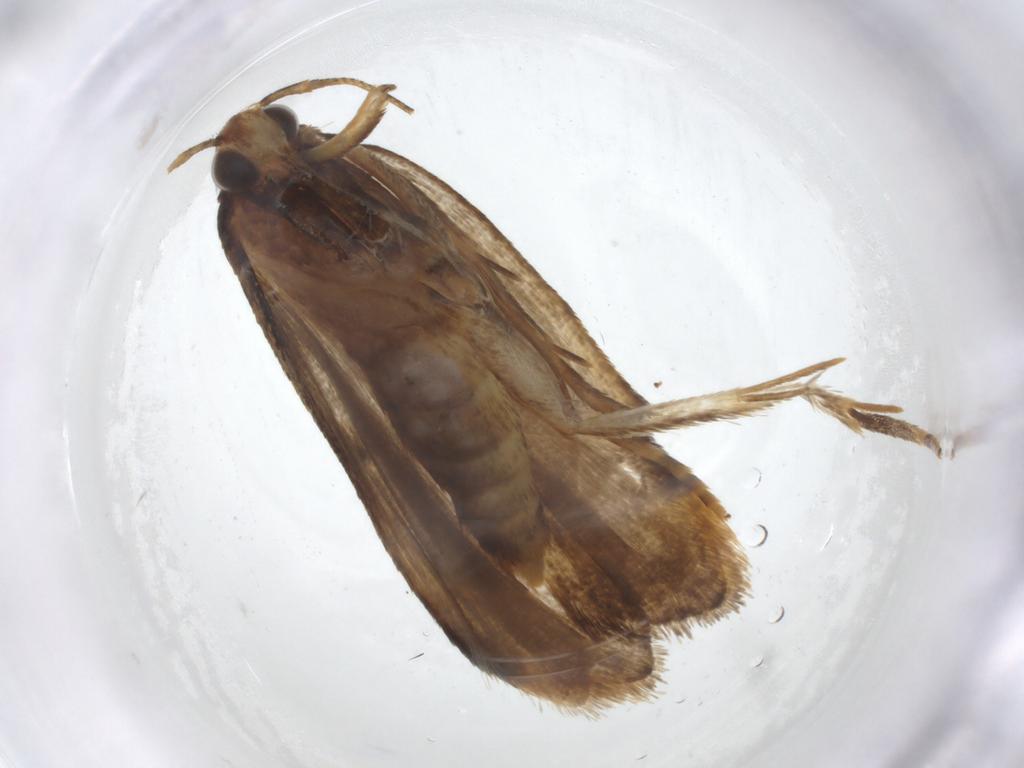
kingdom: Animalia
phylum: Arthropoda
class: Insecta
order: Lepidoptera
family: Autostichidae
